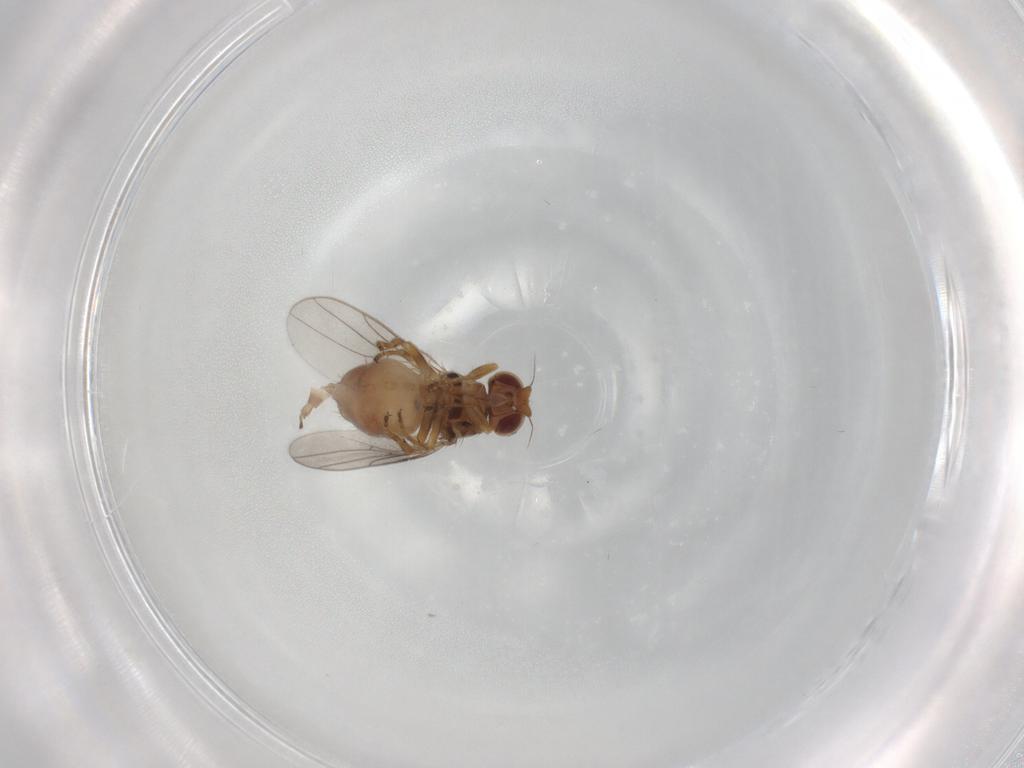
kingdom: Animalia
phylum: Arthropoda
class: Insecta
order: Diptera
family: Chloropidae
